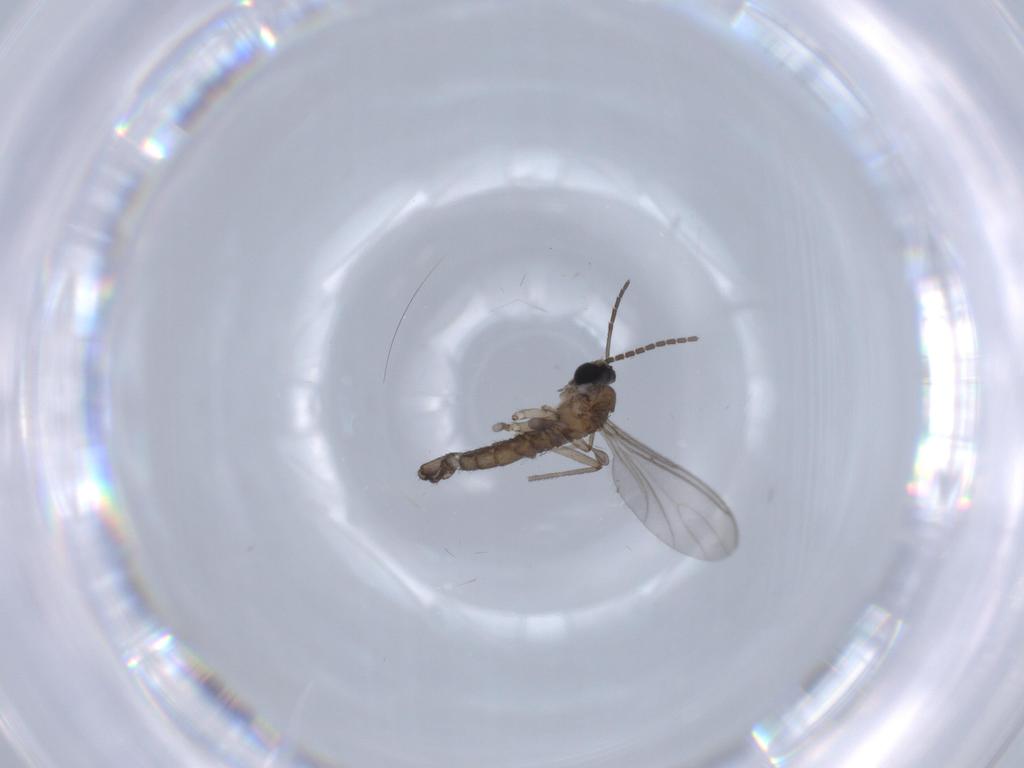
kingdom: Animalia
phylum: Arthropoda
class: Insecta
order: Diptera
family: Sciaridae
